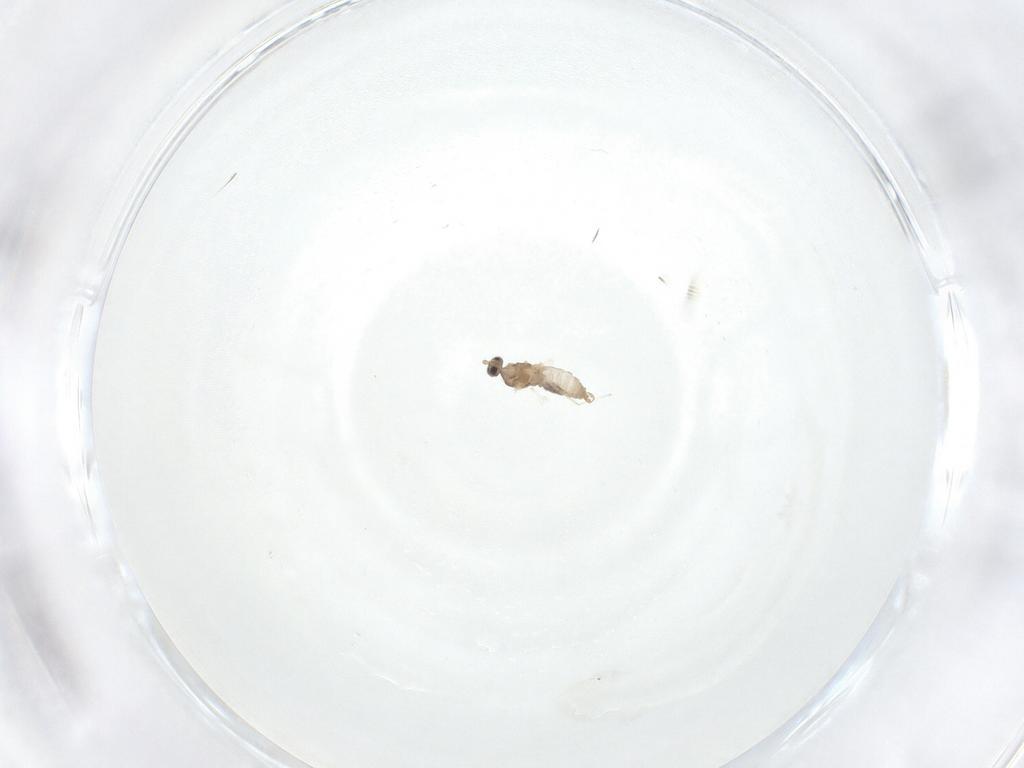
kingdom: Animalia
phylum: Arthropoda
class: Insecta
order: Diptera
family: Cecidomyiidae
